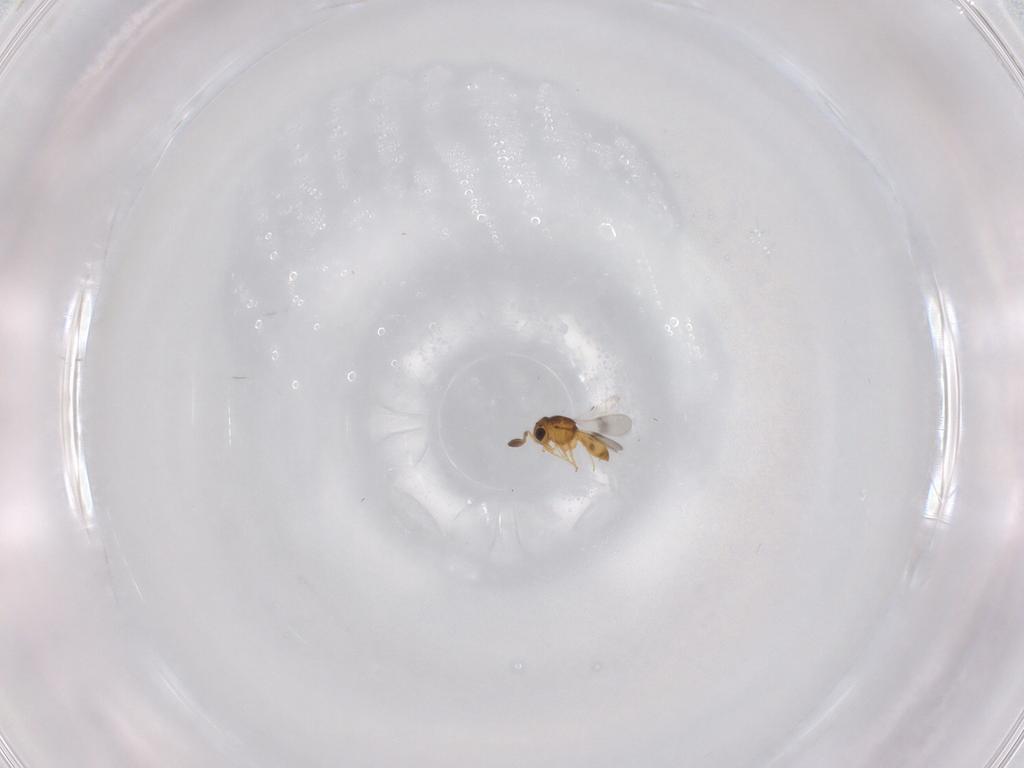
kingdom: Animalia
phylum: Arthropoda
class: Insecta
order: Hymenoptera
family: Scelionidae
